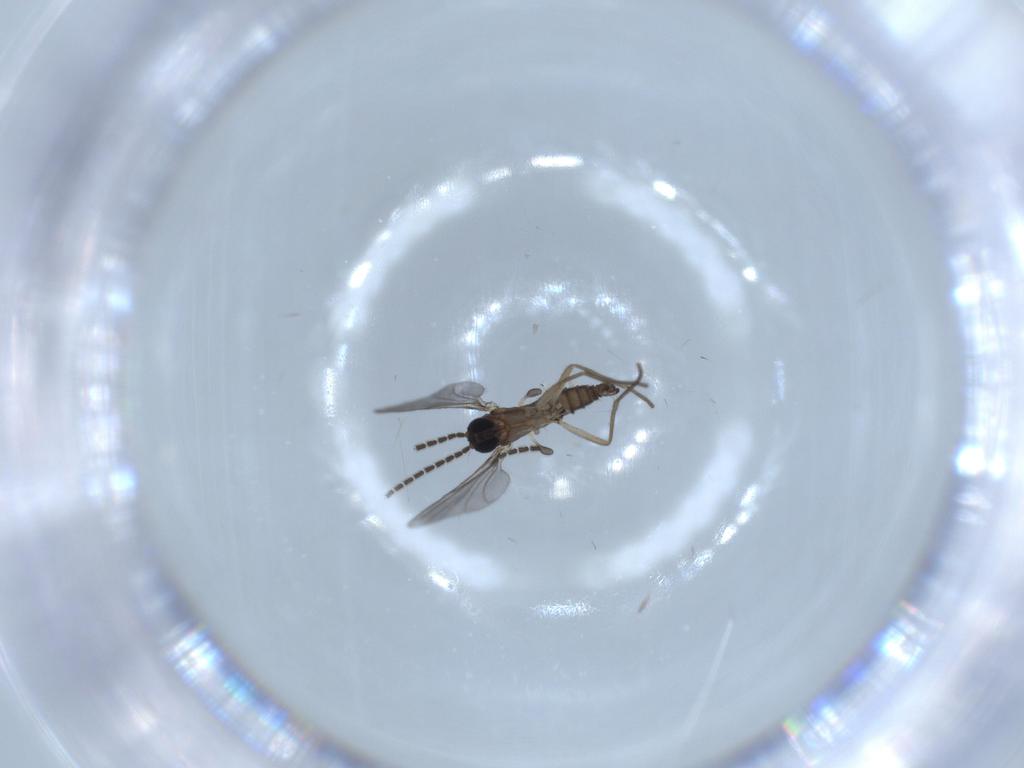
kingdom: Animalia
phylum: Arthropoda
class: Insecta
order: Diptera
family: Sciaridae
